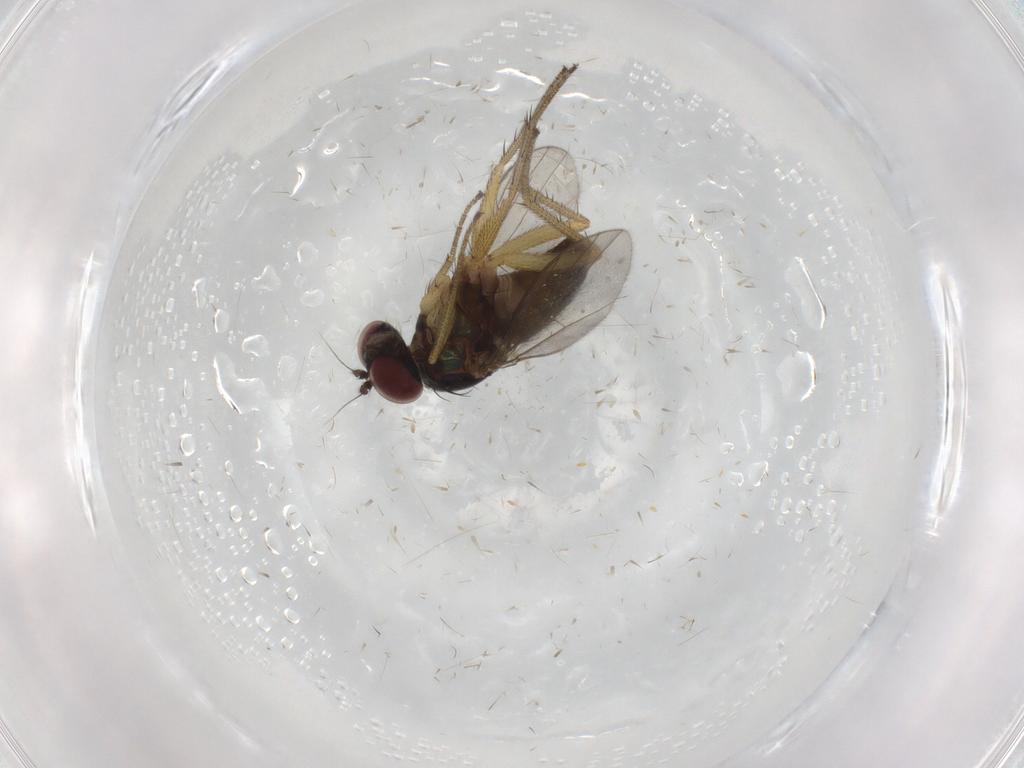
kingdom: Animalia
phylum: Arthropoda
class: Insecta
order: Diptera
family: Chironomidae
